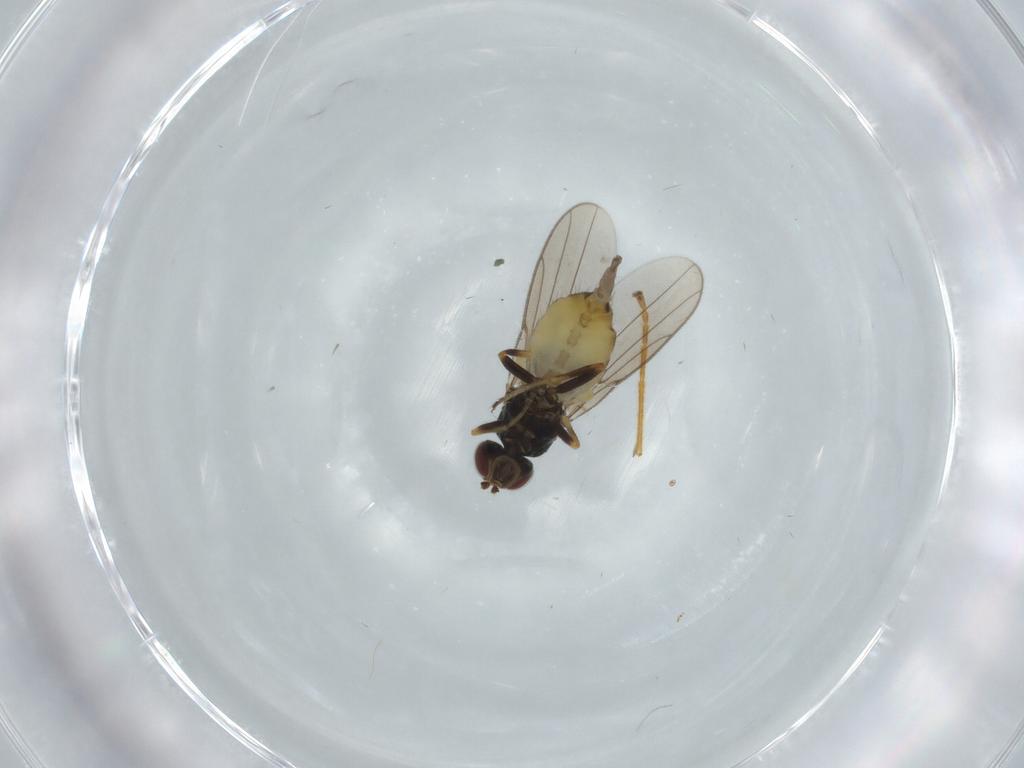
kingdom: Animalia
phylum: Arthropoda
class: Insecta
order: Diptera
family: Chloropidae
